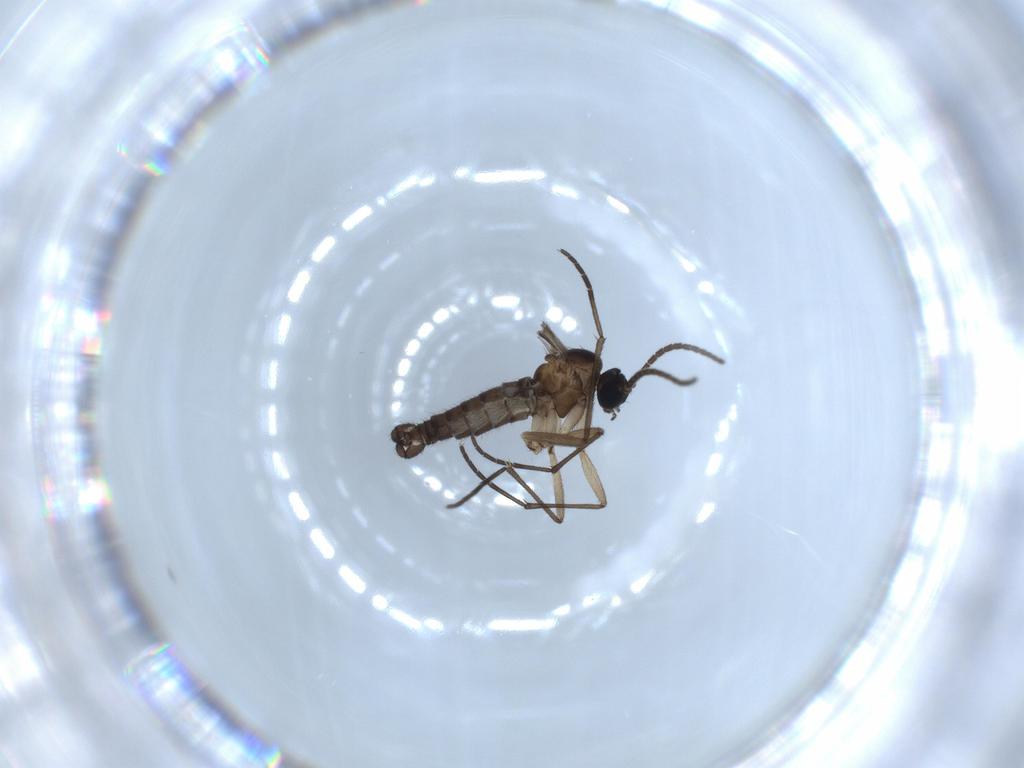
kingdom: Animalia
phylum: Arthropoda
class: Insecta
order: Diptera
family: Sciaridae
